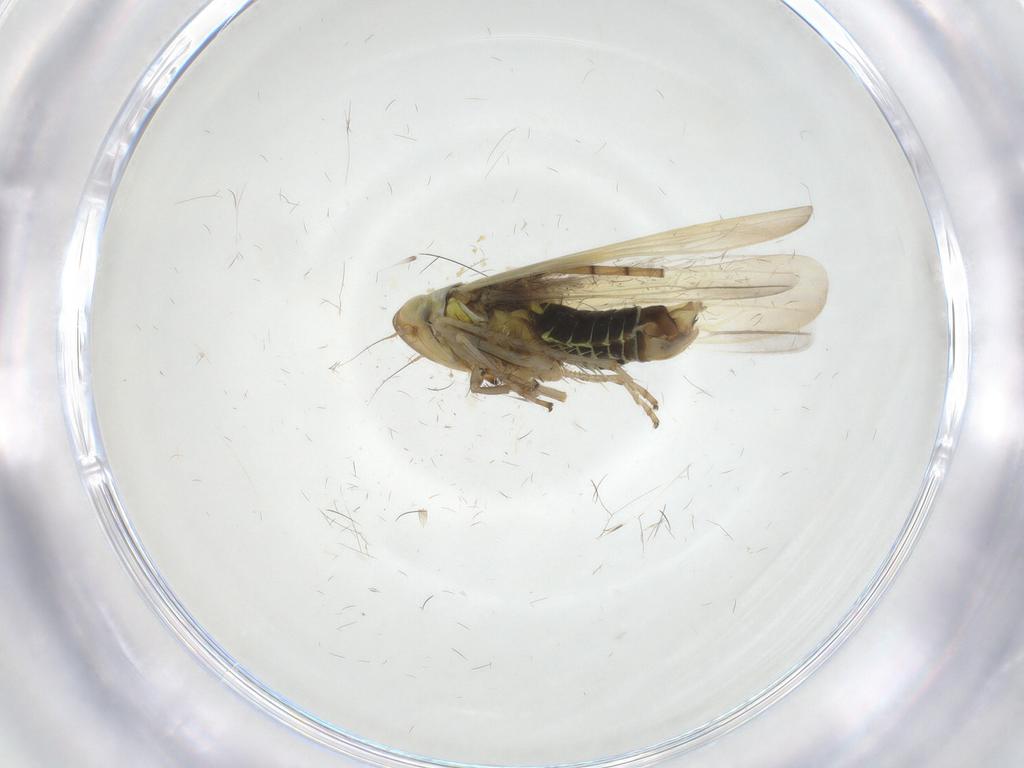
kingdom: Animalia
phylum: Arthropoda
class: Insecta
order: Hemiptera
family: Cicadellidae
